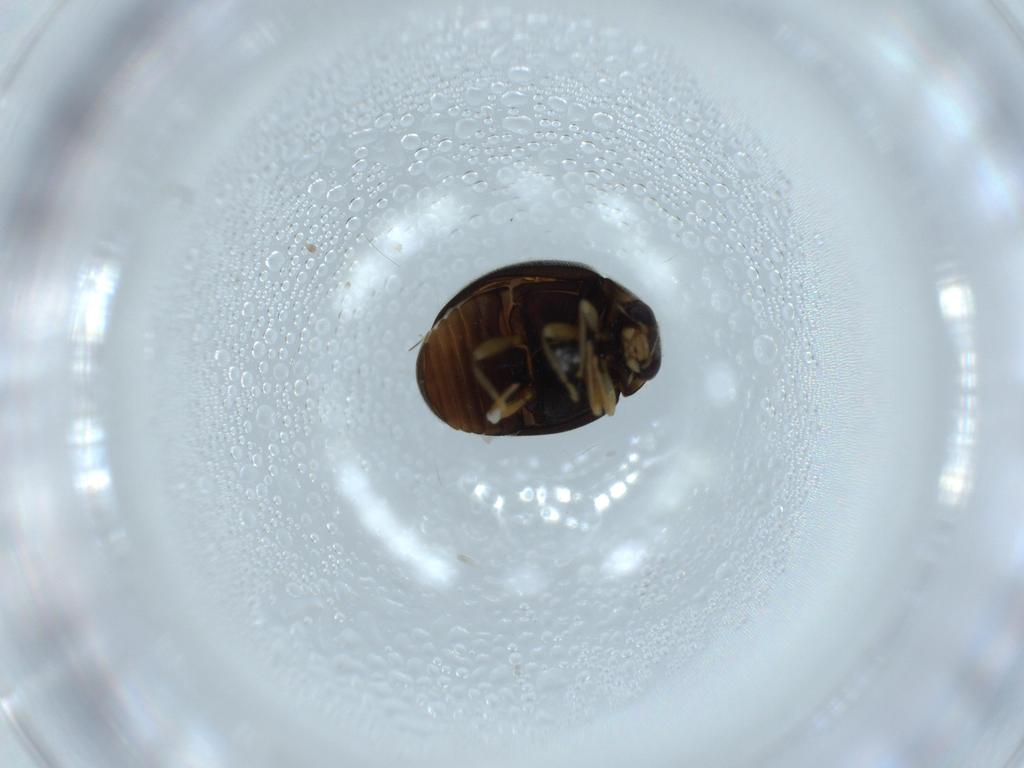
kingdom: Animalia
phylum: Arthropoda
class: Insecta
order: Coleoptera
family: Coccinellidae
